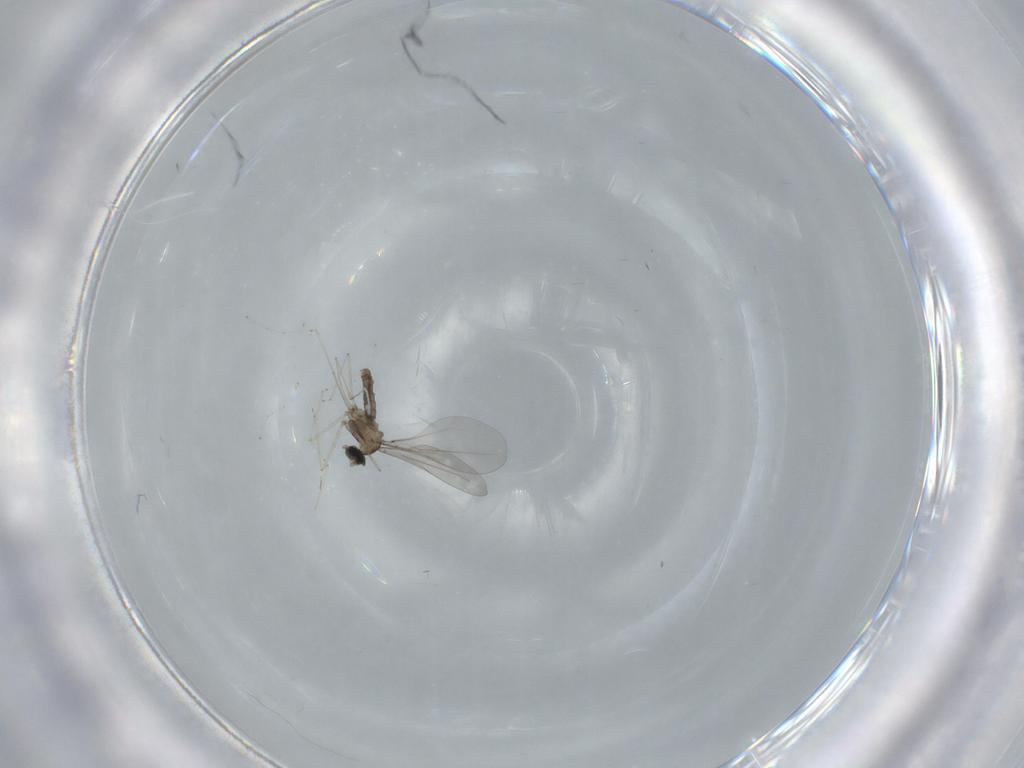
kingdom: Animalia
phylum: Arthropoda
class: Insecta
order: Diptera
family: Cecidomyiidae
